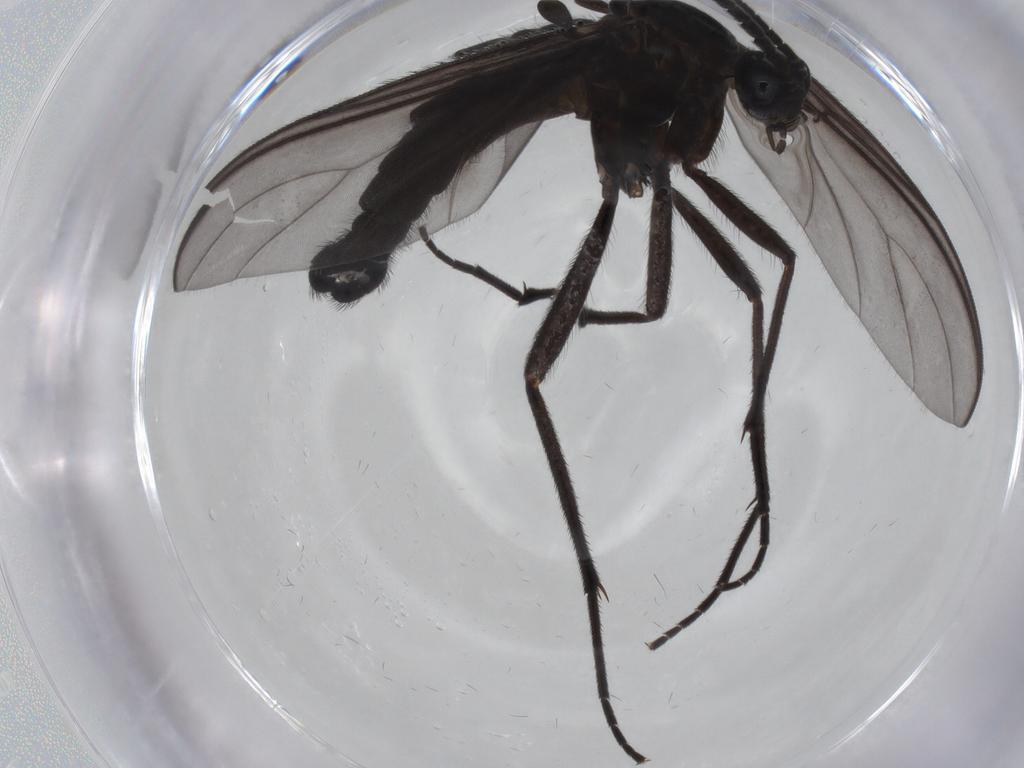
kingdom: Animalia
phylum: Arthropoda
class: Insecta
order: Diptera
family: Cecidomyiidae
